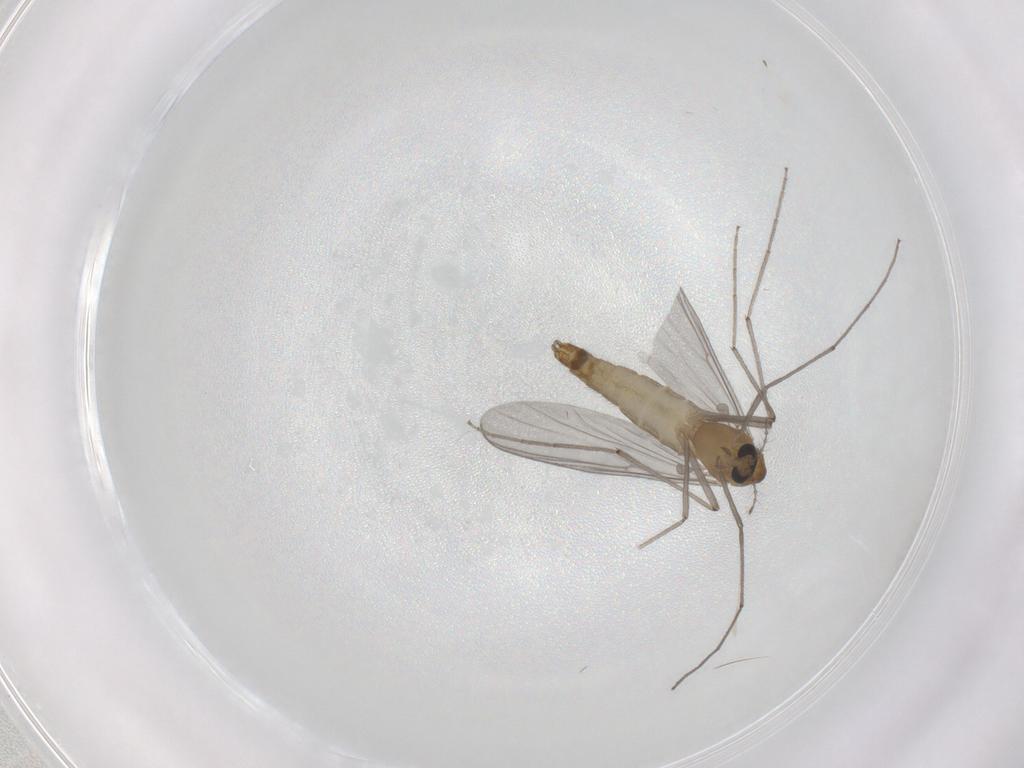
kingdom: Animalia
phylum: Arthropoda
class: Insecta
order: Diptera
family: Chironomidae
